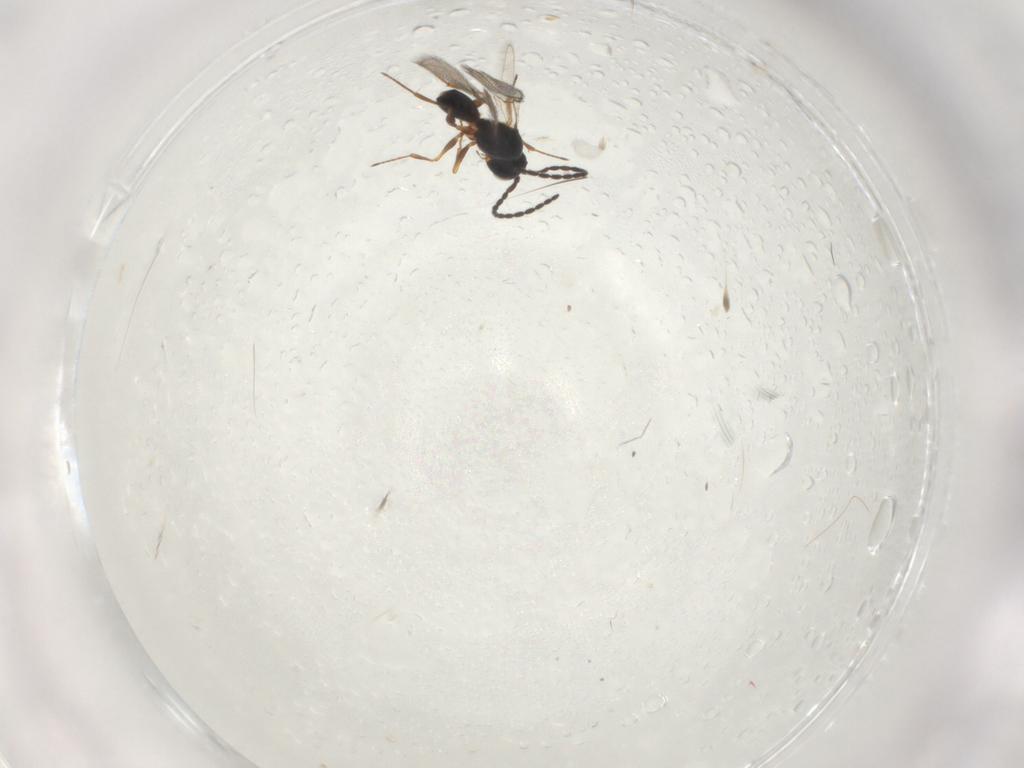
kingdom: Animalia
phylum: Arthropoda
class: Insecta
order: Hymenoptera
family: Figitidae
